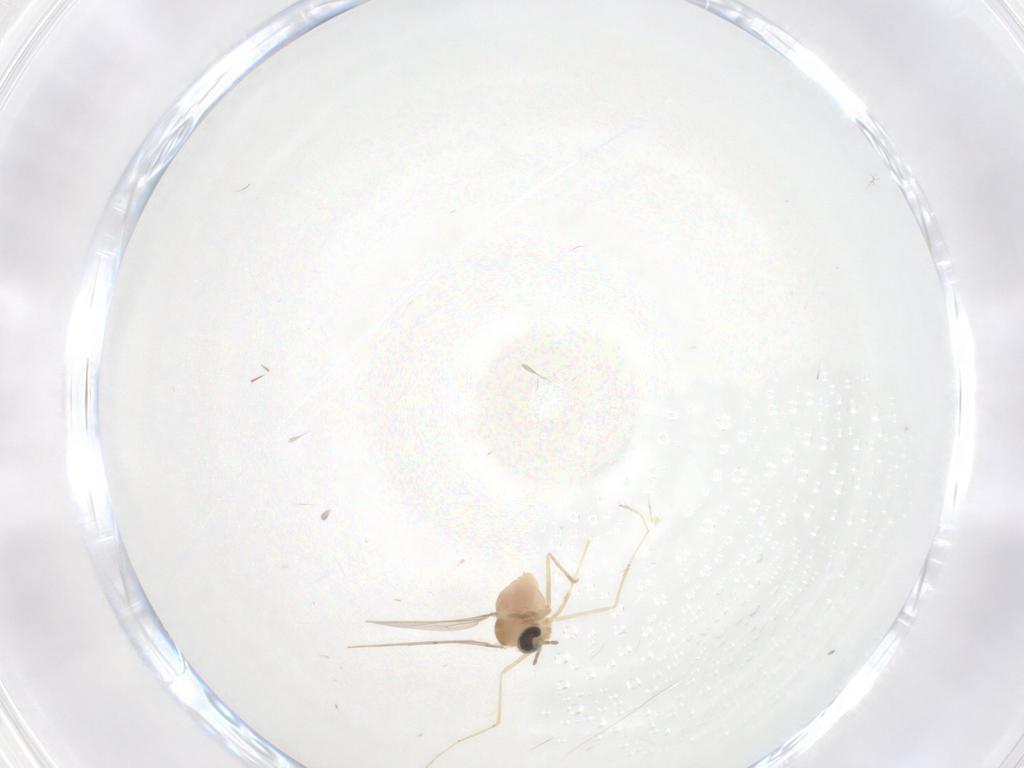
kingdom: Animalia
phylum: Arthropoda
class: Insecta
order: Diptera
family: Cecidomyiidae
